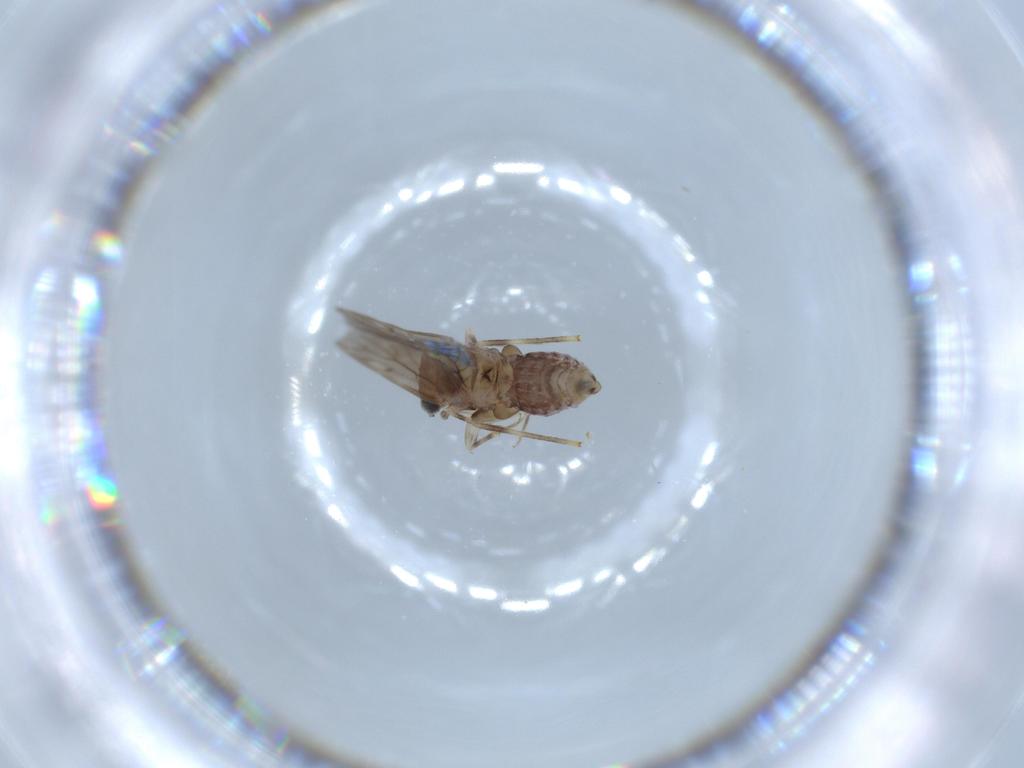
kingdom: Animalia
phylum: Arthropoda
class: Insecta
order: Psocodea
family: Lepidopsocidae
